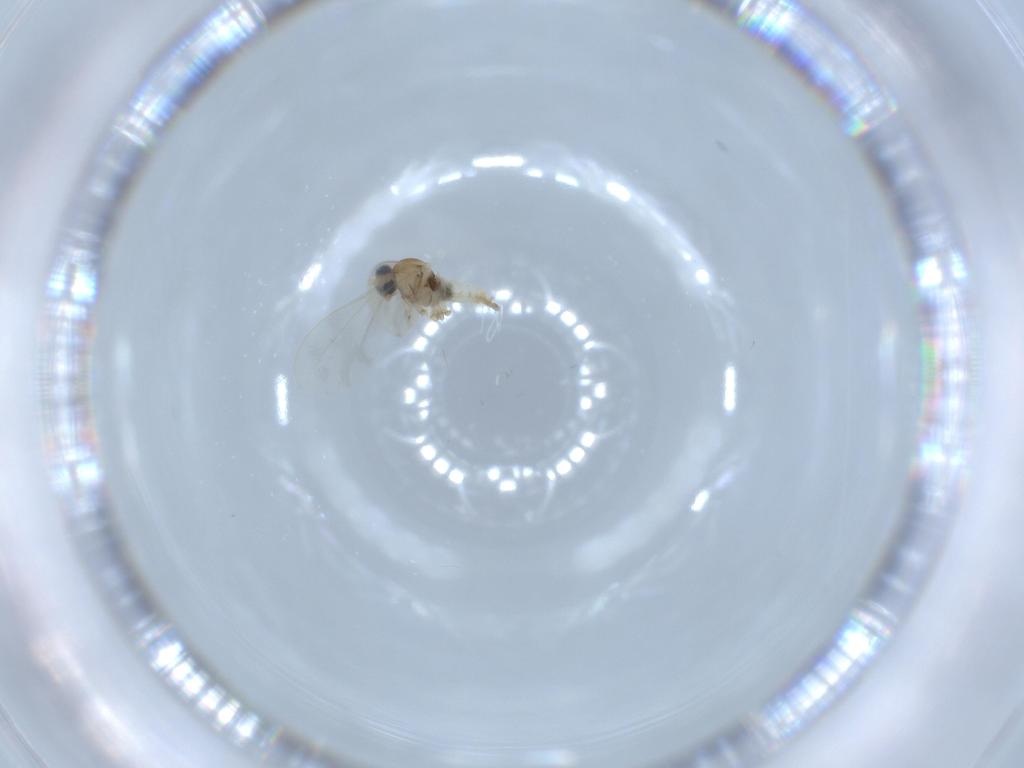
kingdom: Animalia
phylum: Arthropoda
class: Insecta
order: Diptera
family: Cecidomyiidae
